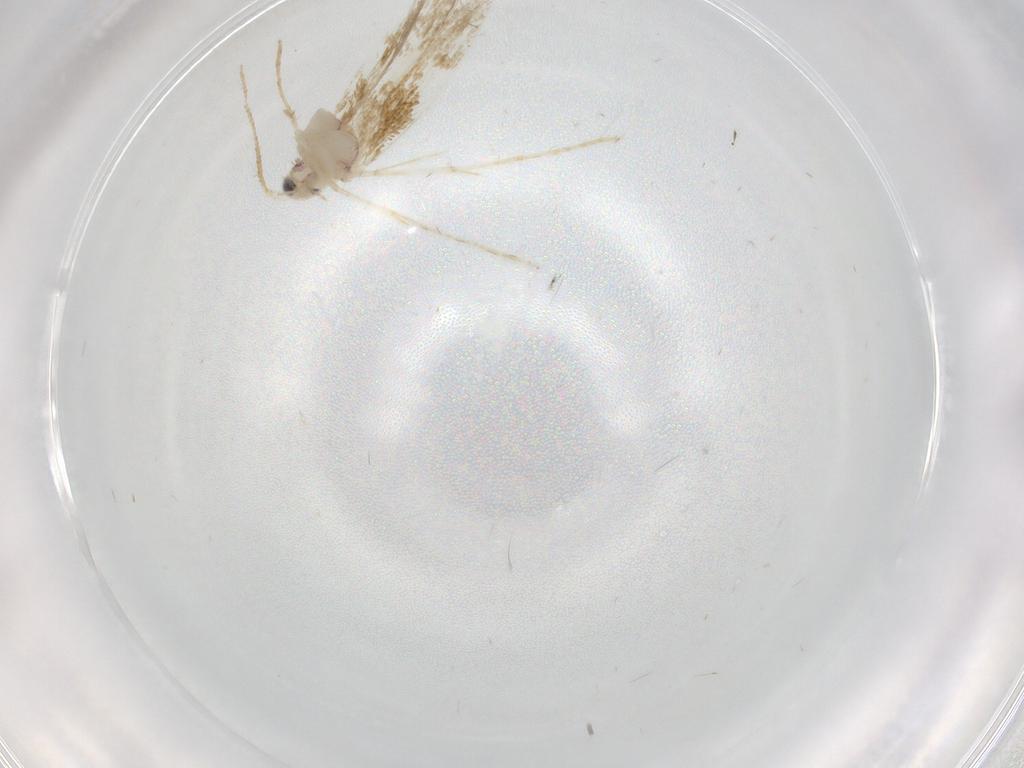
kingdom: Animalia
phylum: Arthropoda
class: Insecta
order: Lepidoptera
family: Lyonetiidae
